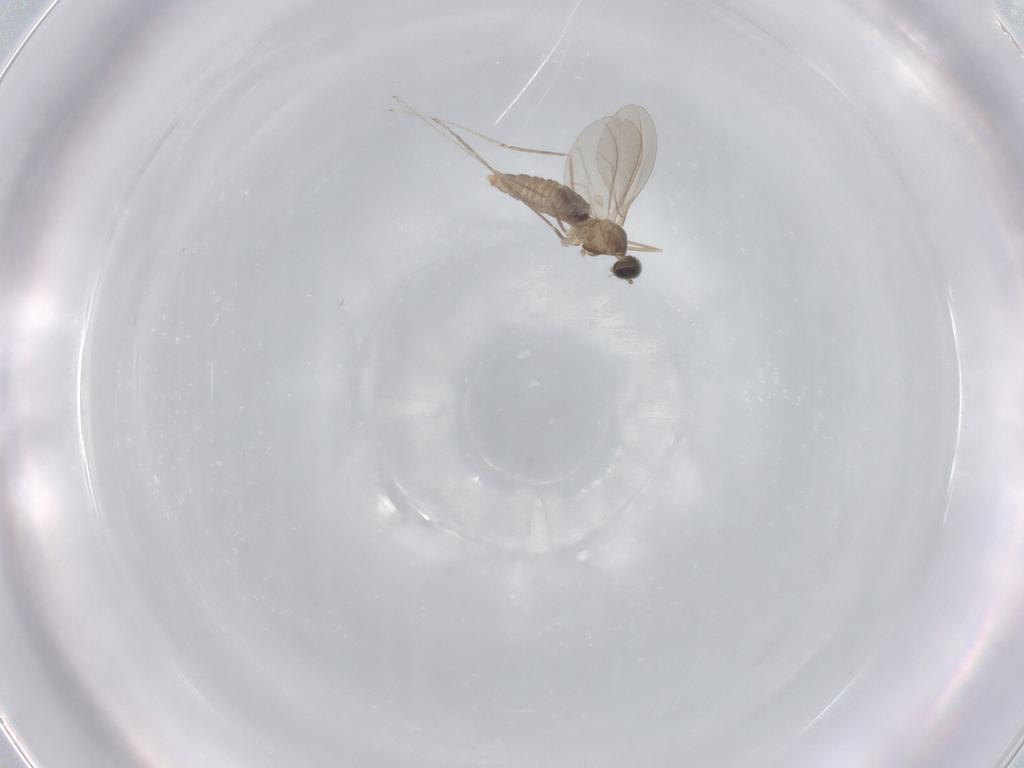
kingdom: Animalia
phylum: Arthropoda
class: Insecta
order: Diptera
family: Cecidomyiidae
